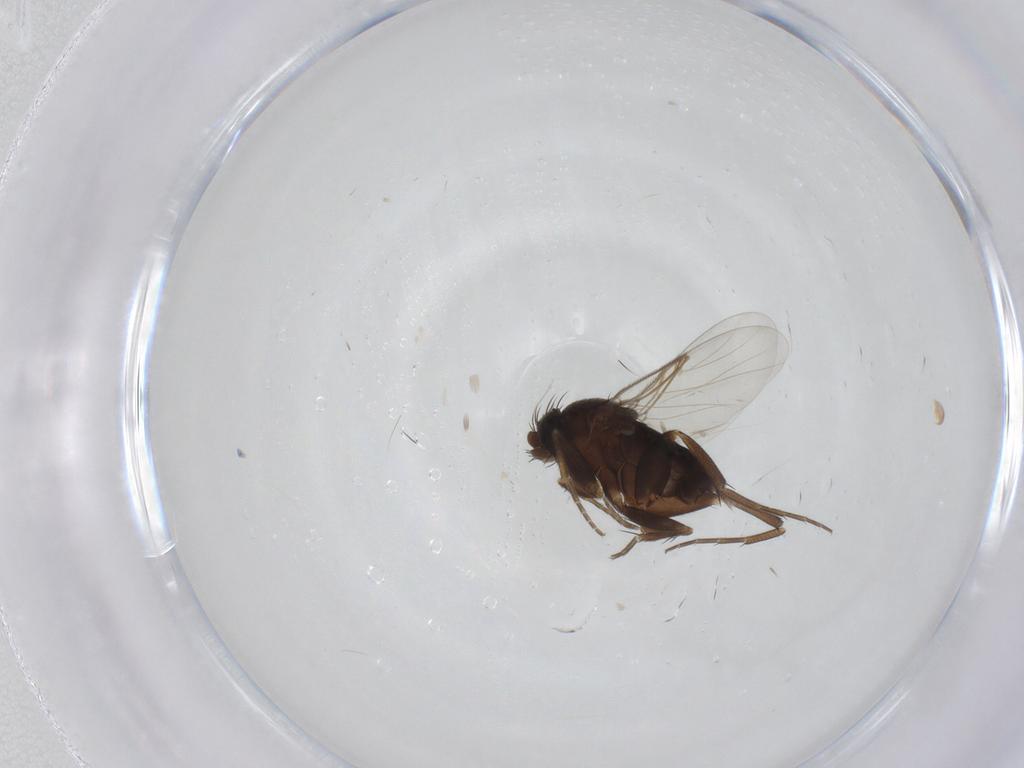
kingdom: Animalia
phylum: Arthropoda
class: Insecta
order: Diptera
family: Phoridae
